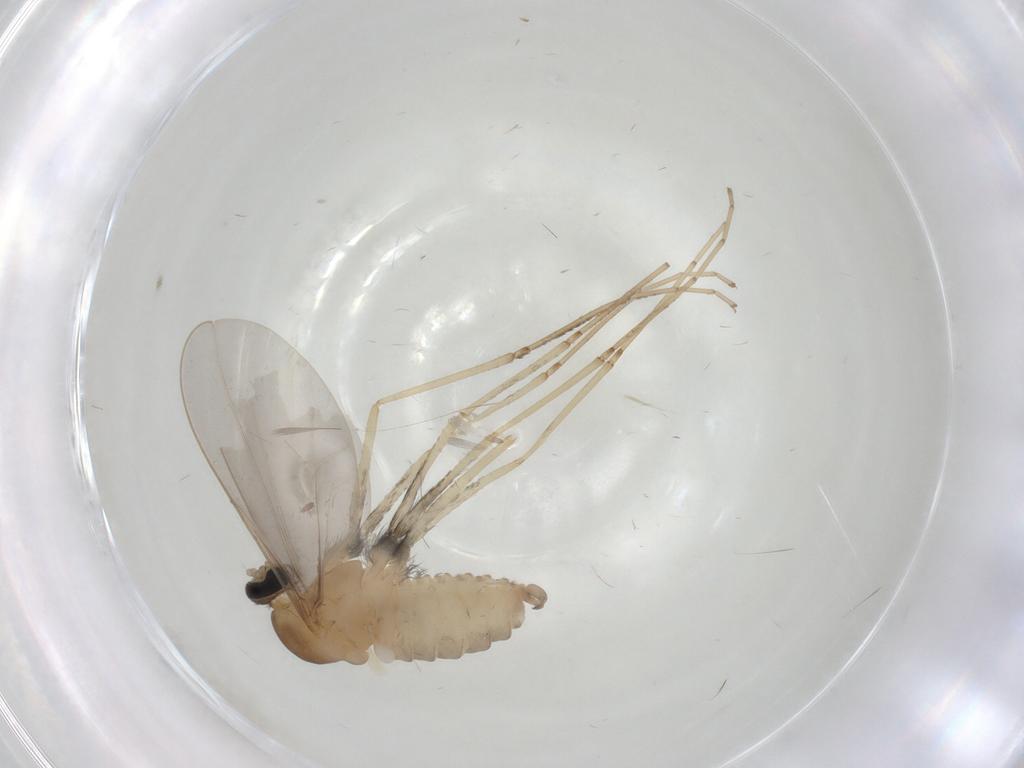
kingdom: Animalia
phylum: Arthropoda
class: Insecta
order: Diptera
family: Cecidomyiidae
